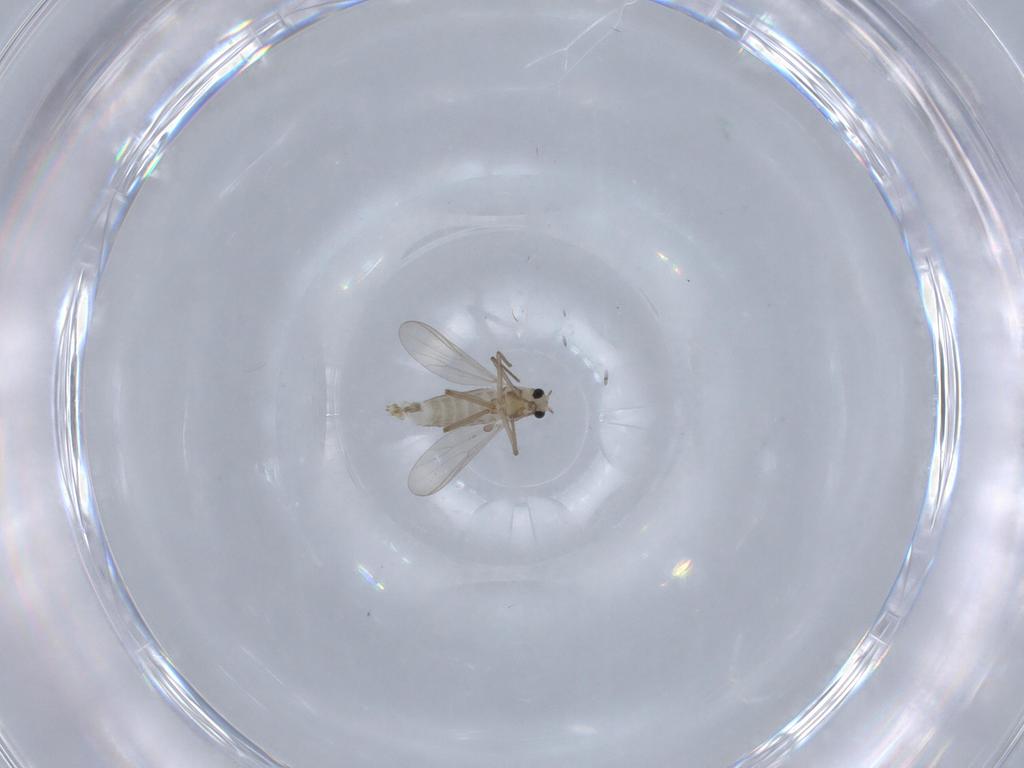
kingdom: Animalia
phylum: Arthropoda
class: Insecta
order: Diptera
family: Chironomidae
